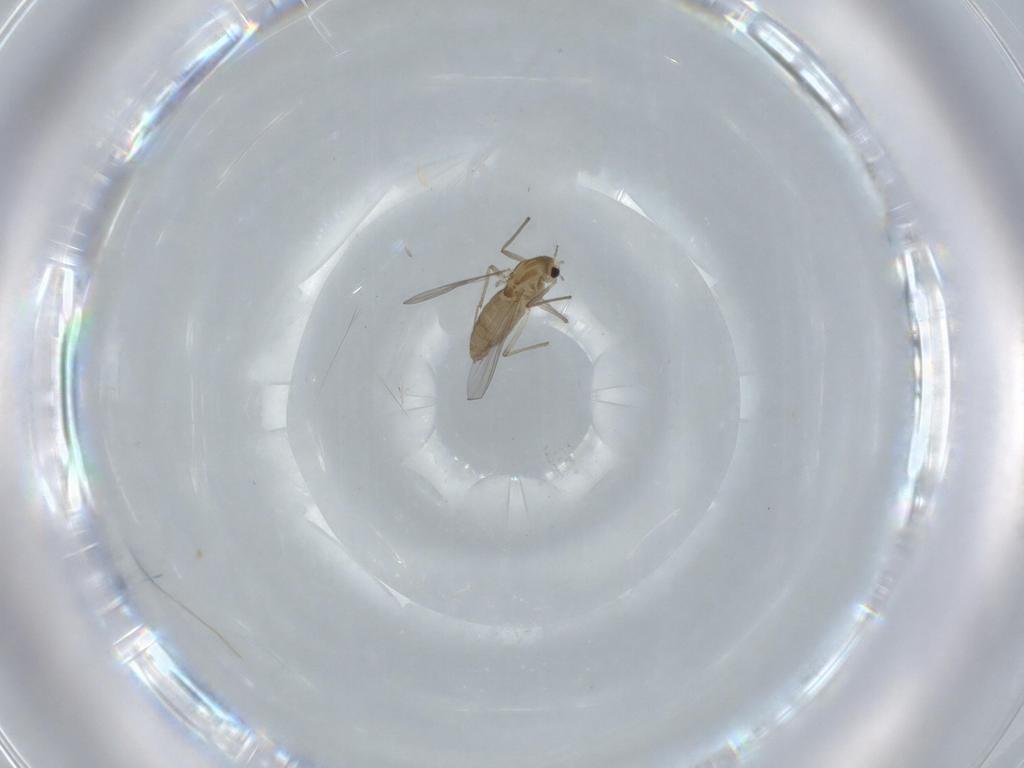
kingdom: Animalia
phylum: Arthropoda
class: Insecta
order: Diptera
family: Chironomidae
